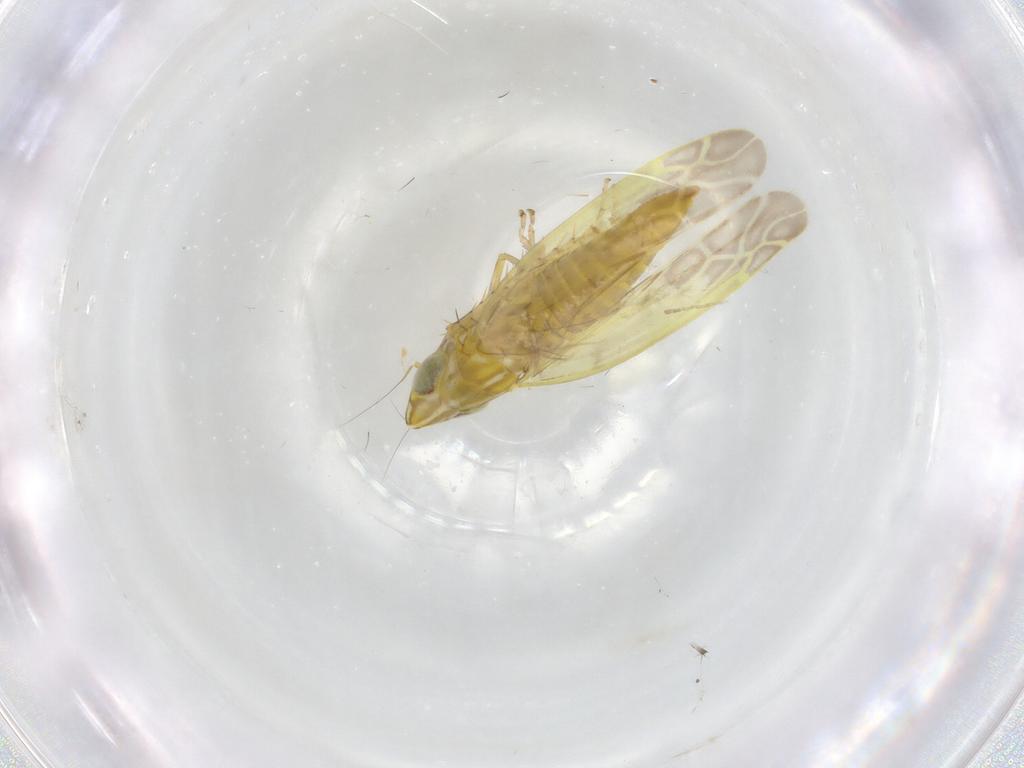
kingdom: Animalia
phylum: Arthropoda
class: Insecta
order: Hemiptera
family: Cicadellidae
